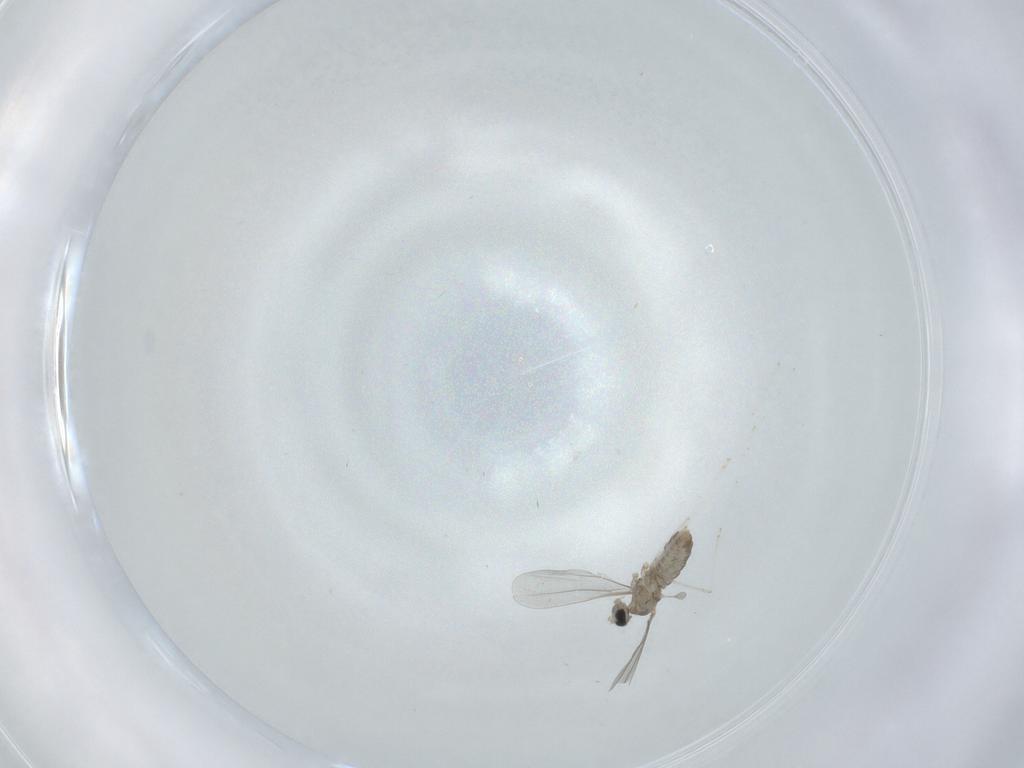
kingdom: Animalia
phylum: Arthropoda
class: Insecta
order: Diptera
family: Cecidomyiidae
